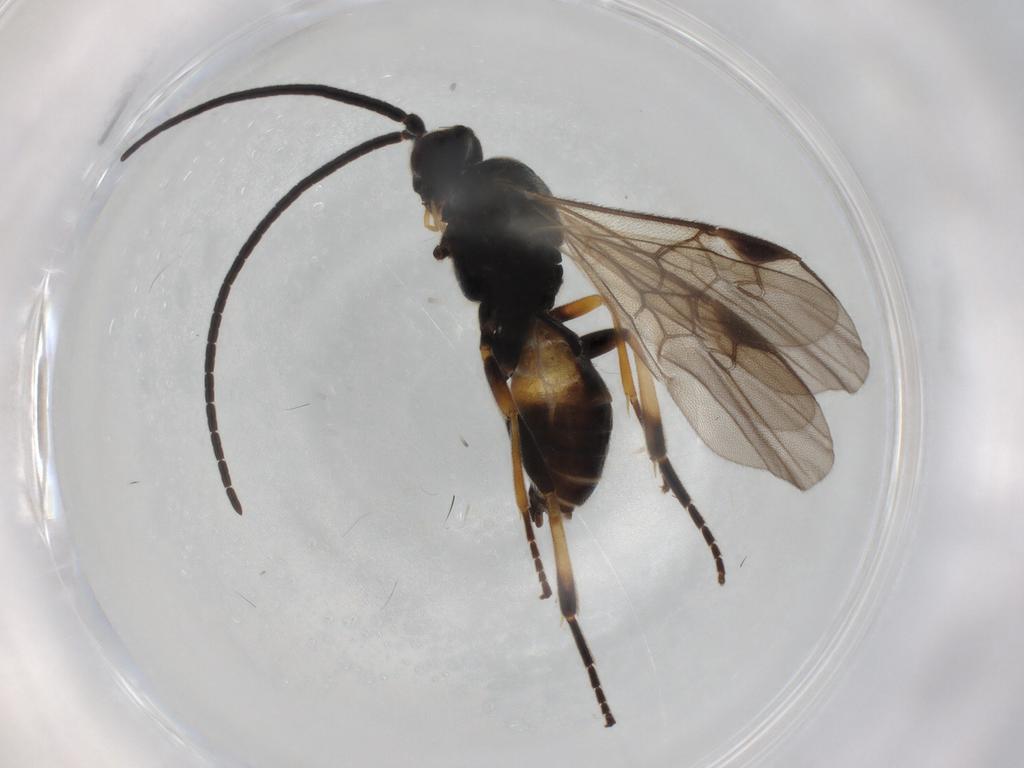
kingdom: Animalia
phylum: Arthropoda
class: Insecta
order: Hymenoptera
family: Braconidae
